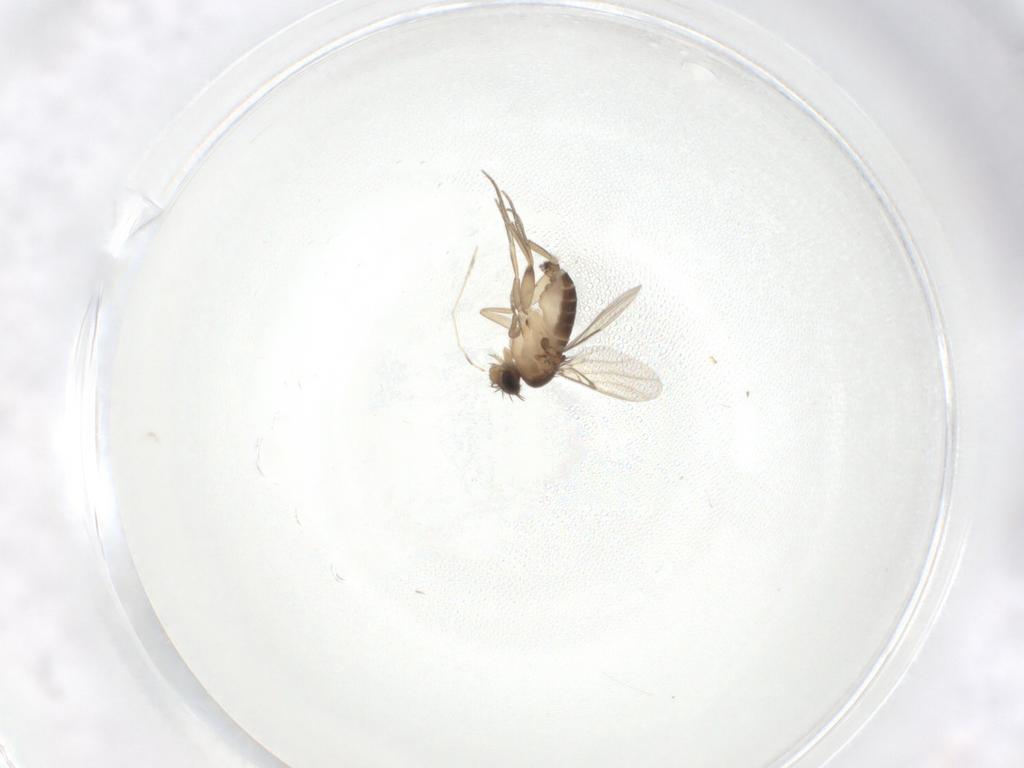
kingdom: Animalia
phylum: Arthropoda
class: Insecta
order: Diptera
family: Phoridae
